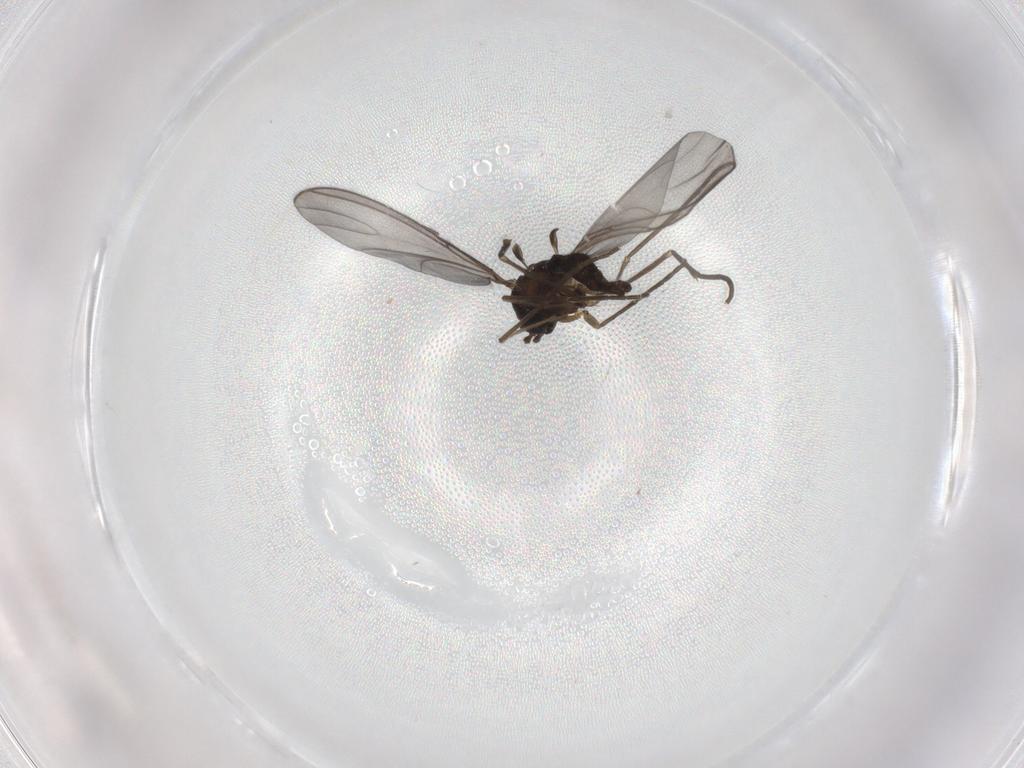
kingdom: Animalia
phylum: Arthropoda
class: Insecta
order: Diptera
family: Sciaridae
